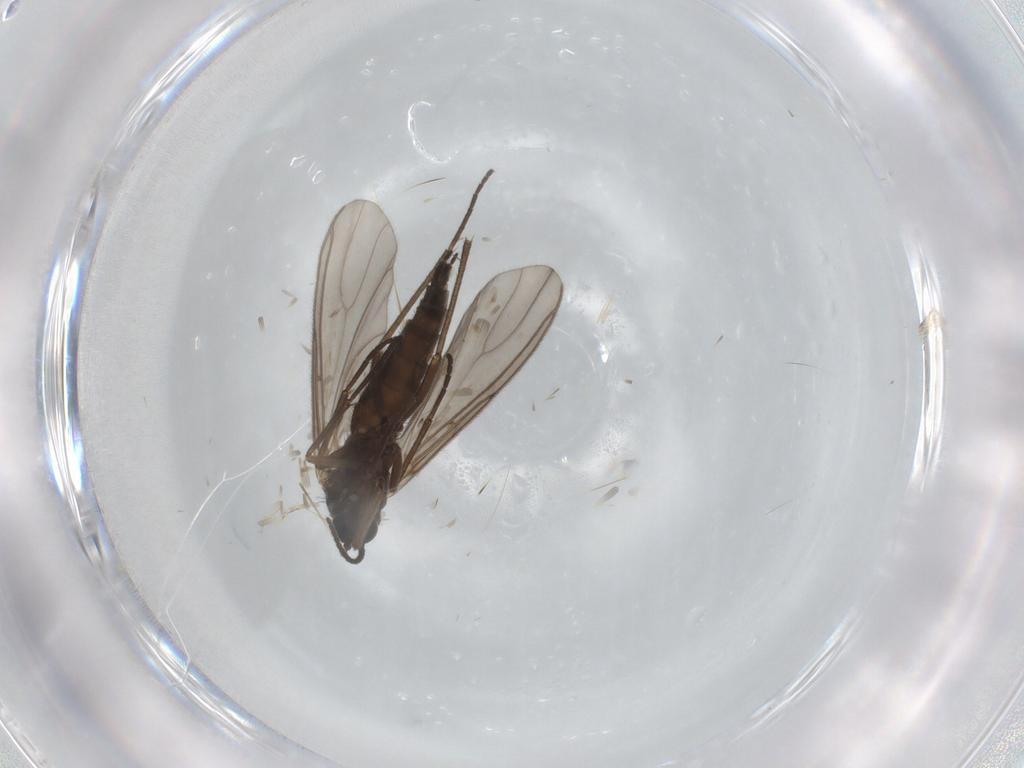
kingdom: Animalia
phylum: Arthropoda
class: Insecta
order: Diptera
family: Sciaridae
